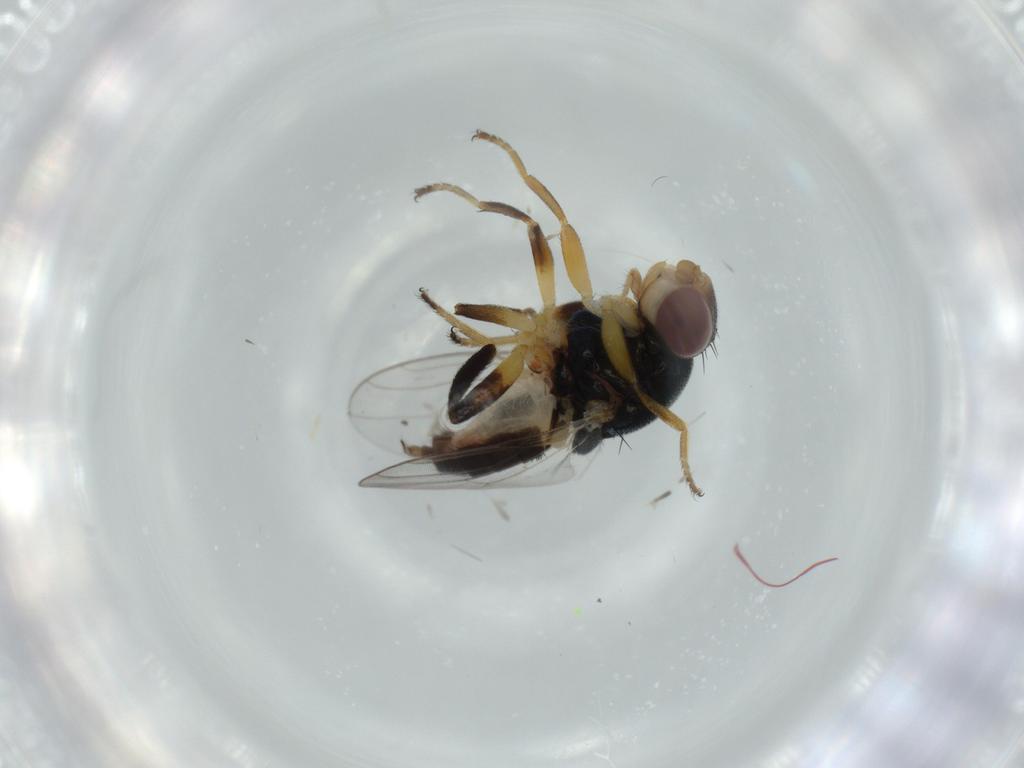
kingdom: Animalia
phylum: Arthropoda
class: Insecta
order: Diptera
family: Chloropidae
